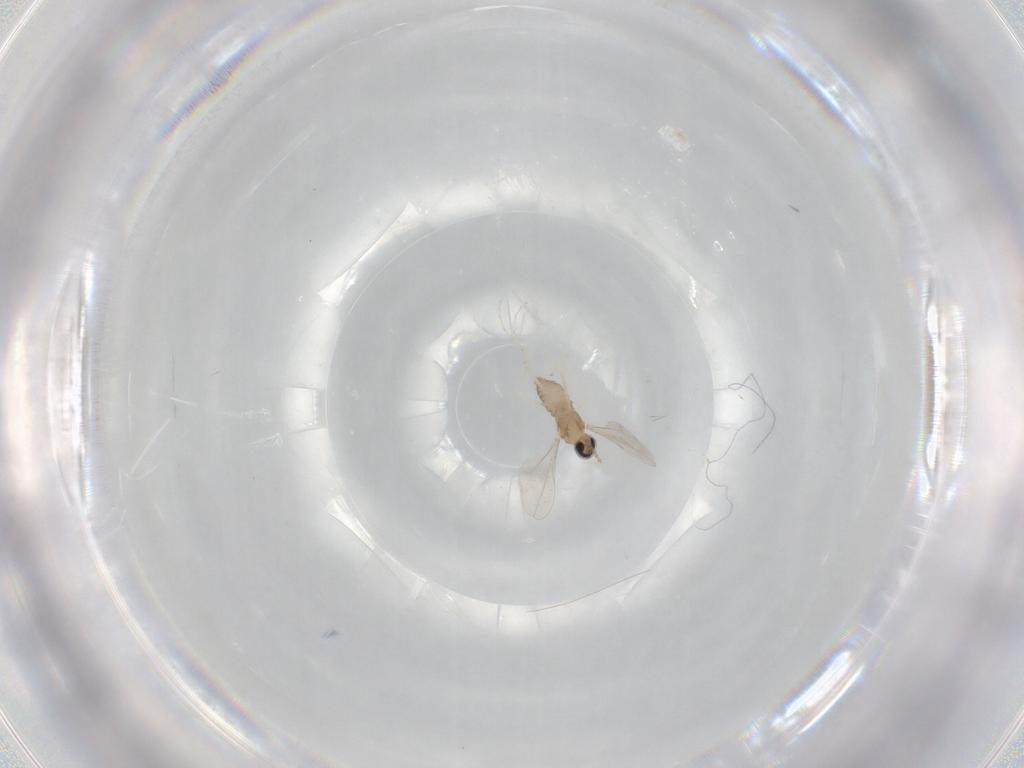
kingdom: Animalia
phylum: Arthropoda
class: Insecta
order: Diptera
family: Cecidomyiidae
